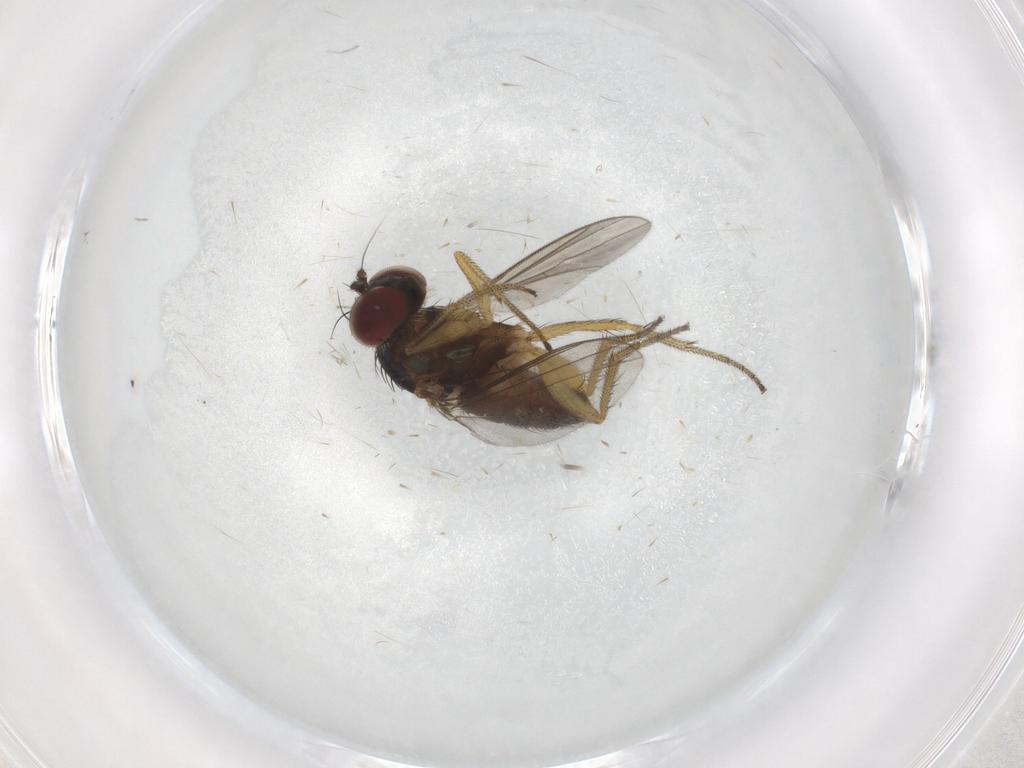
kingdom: Animalia
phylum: Arthropoda
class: Insecta
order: Diptera
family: Dolichopodidae
